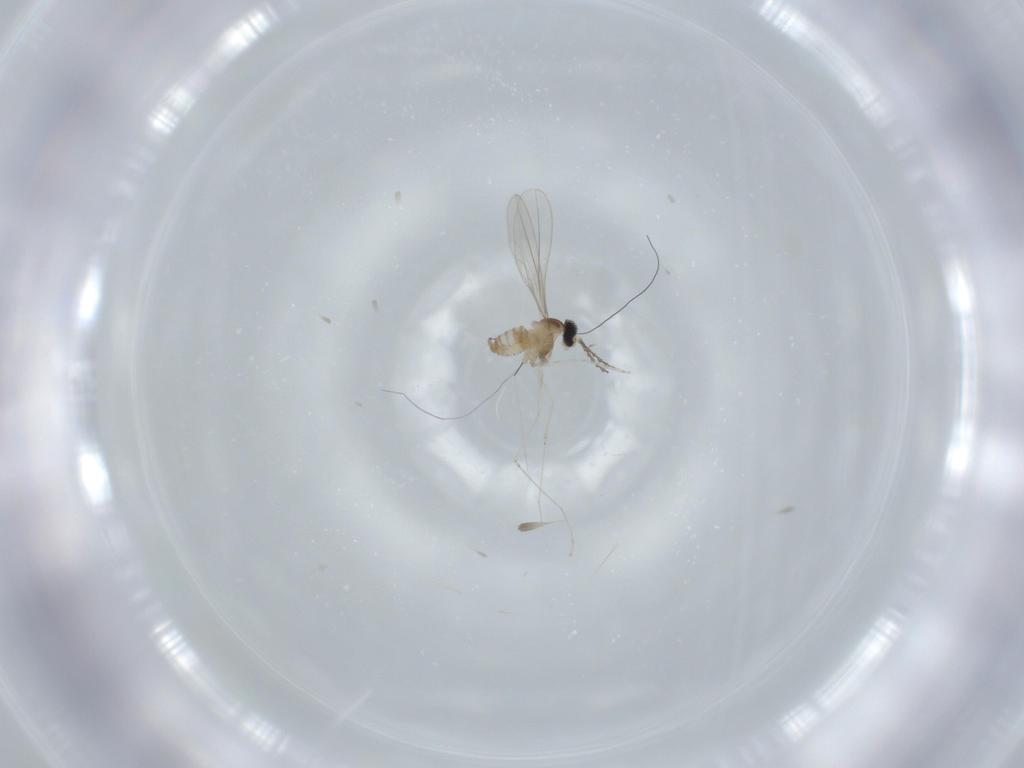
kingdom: Animalia
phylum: Arthropoda
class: Insecta
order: Diptera
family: Cecidomyiidae
